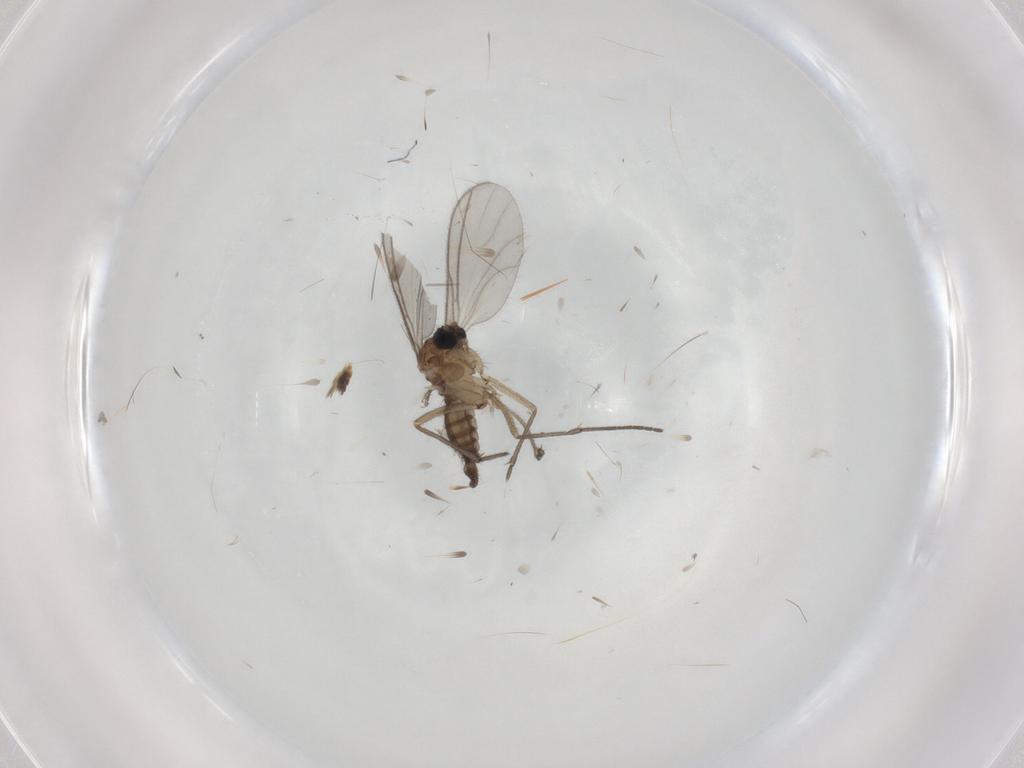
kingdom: Animalia
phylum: Arthropoda
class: Insecta
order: Diptera
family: Sciaridae
